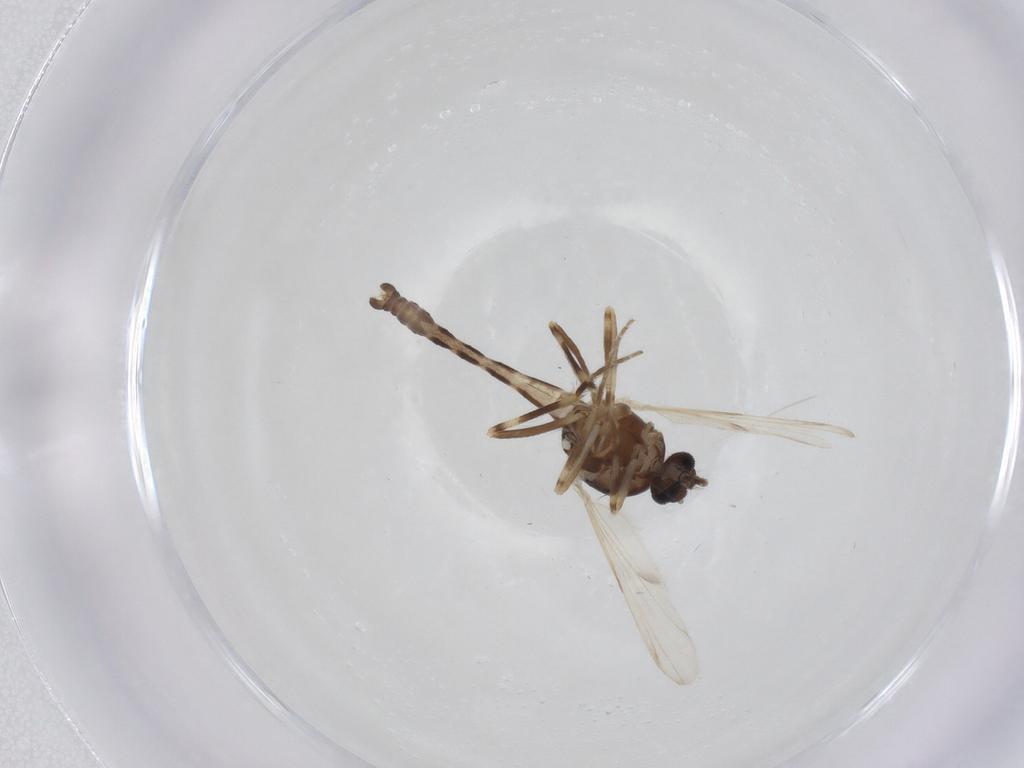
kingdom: Animalia
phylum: Arthropoda
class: Insecta
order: Diptera
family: Ceratopogonidae
